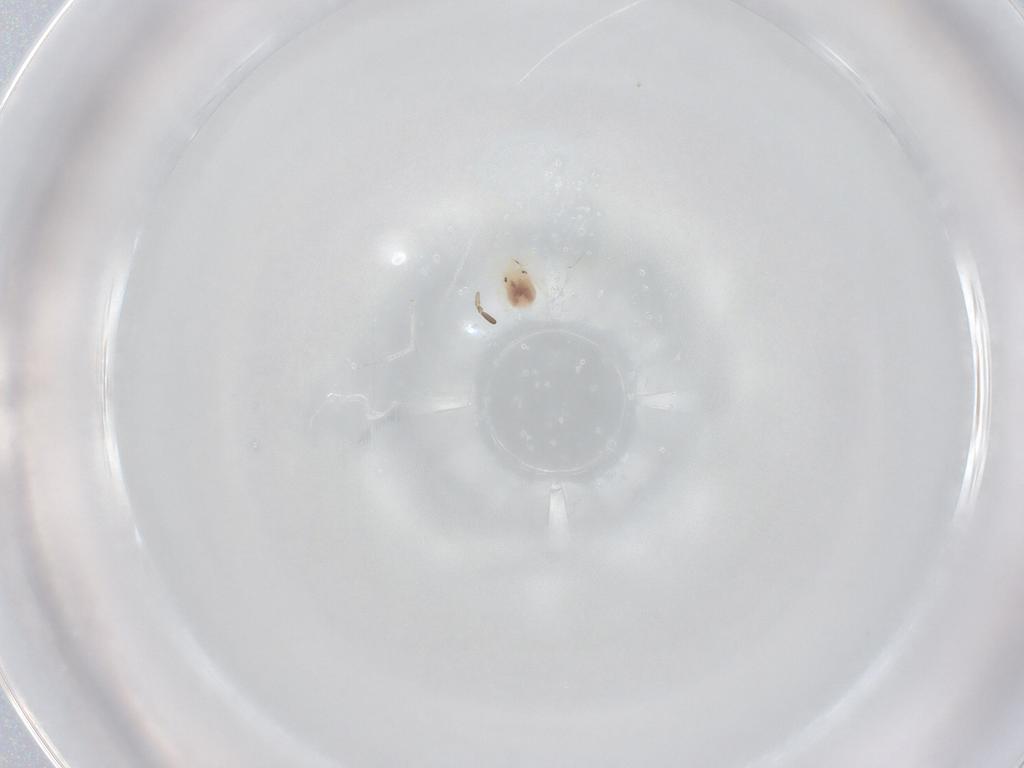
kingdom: Animalia
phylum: Arthropoda
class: Arachnida
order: Trombidiformes
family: Anystidae
